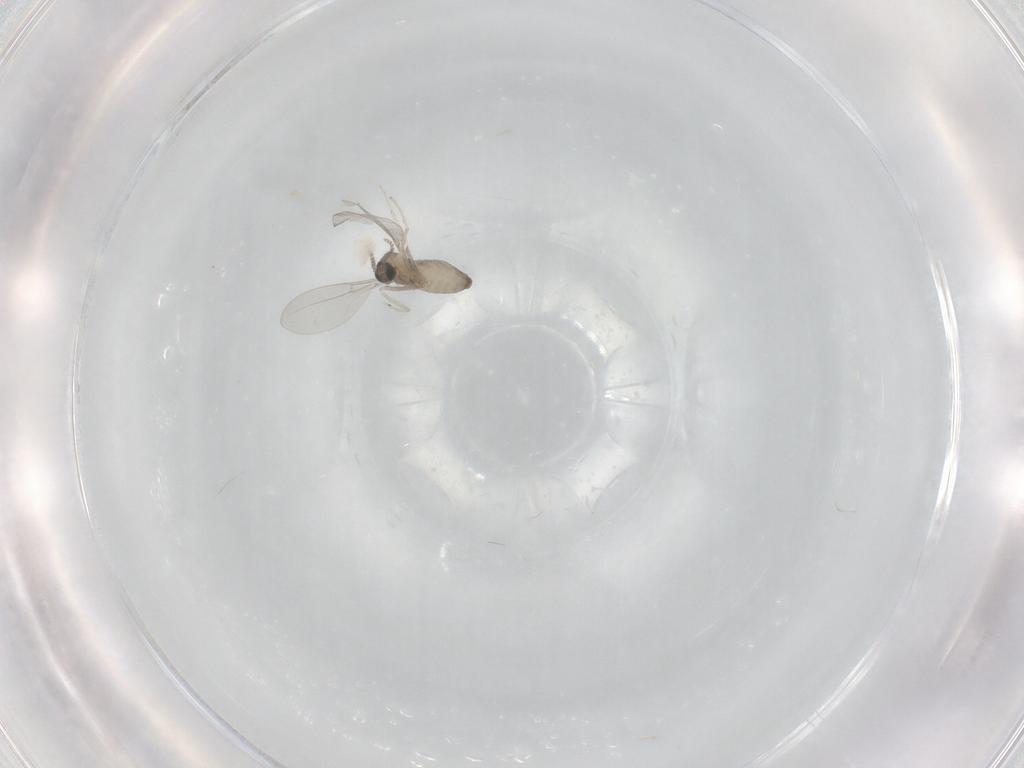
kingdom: Animalia
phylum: Arthropoda
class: Insecta
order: Diptera
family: Cecidomyiidae
